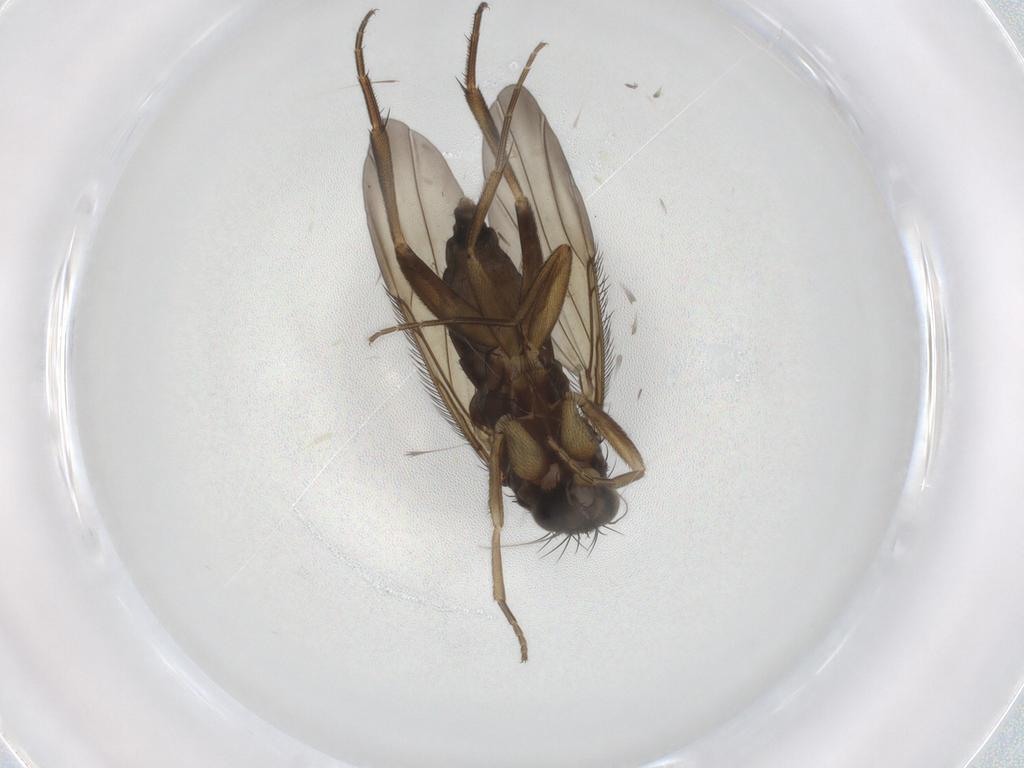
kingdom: Animalia
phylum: Arthropoda
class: Insecta
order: Diptera
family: Phoridae
